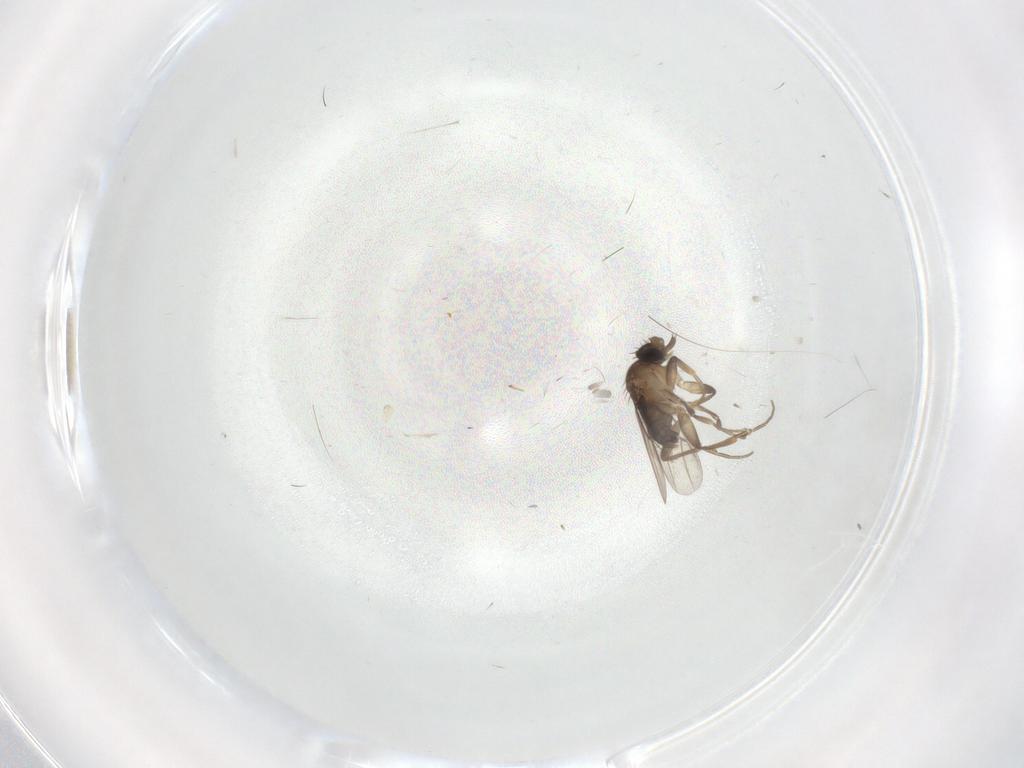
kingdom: Animalia
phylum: Arthropoda
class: Insecta
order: Diptera
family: Phoridae
